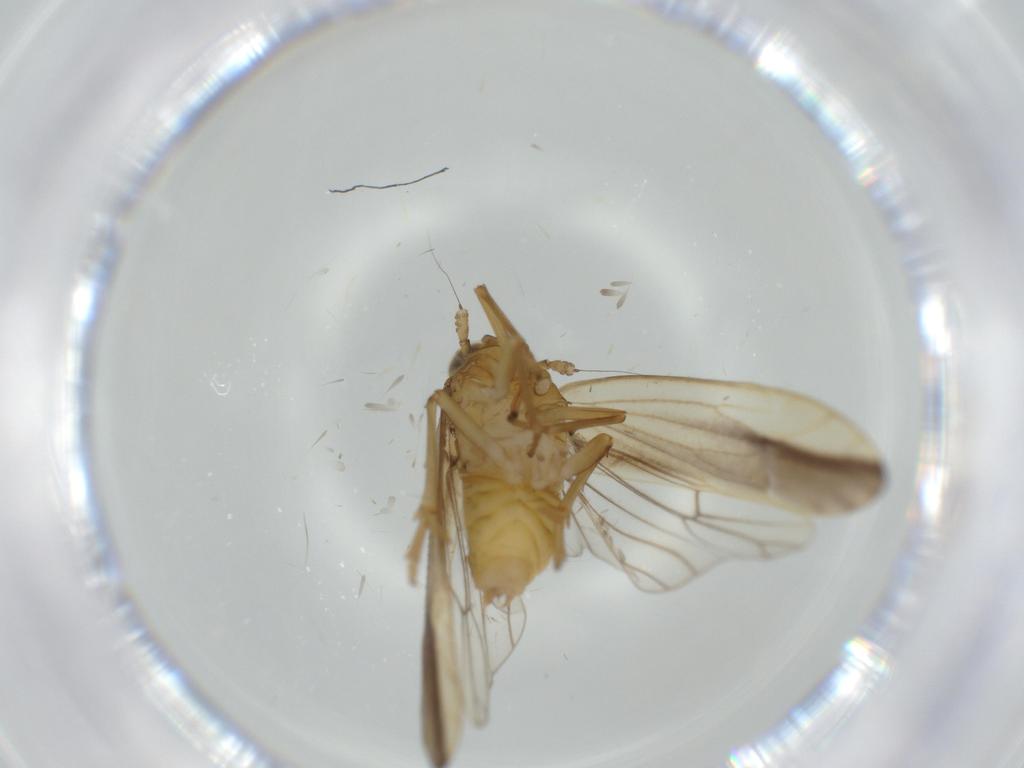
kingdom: Animalia
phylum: Arthropoda
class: Insecta
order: Hemiptera
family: Delphacidae
